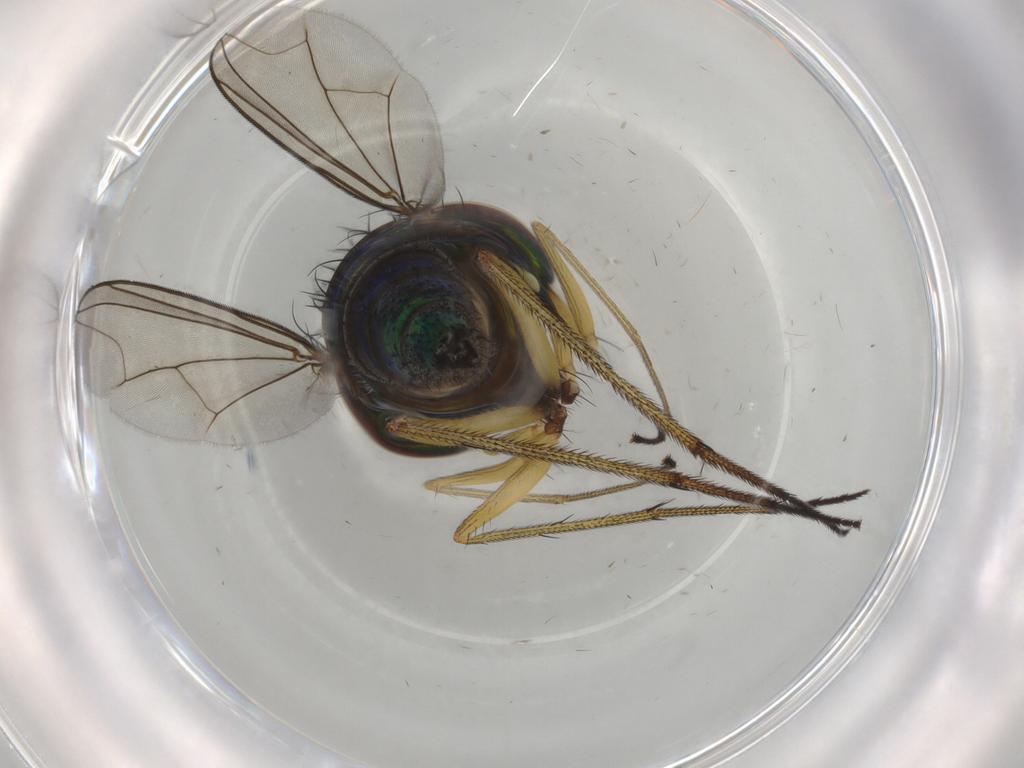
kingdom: Animalia
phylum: Arthropoda
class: Insecta
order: Diptera
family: Dolichopodidae
